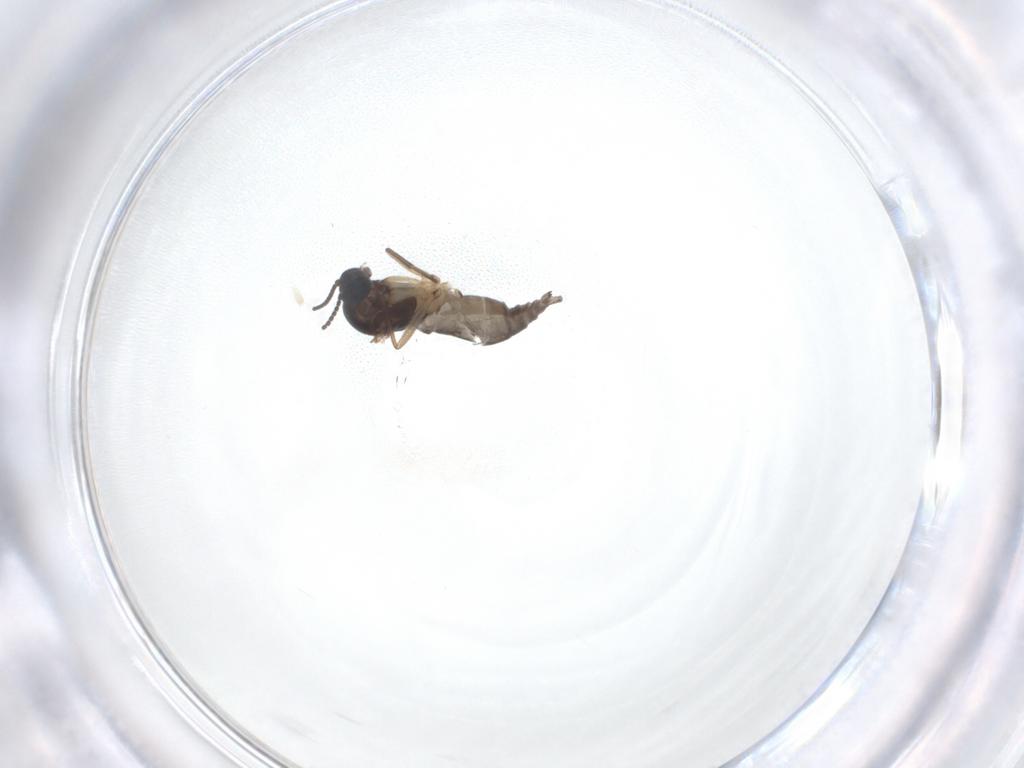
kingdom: Animalia
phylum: Arthropoda
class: Insecta
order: Diptera
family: Sciaridae
